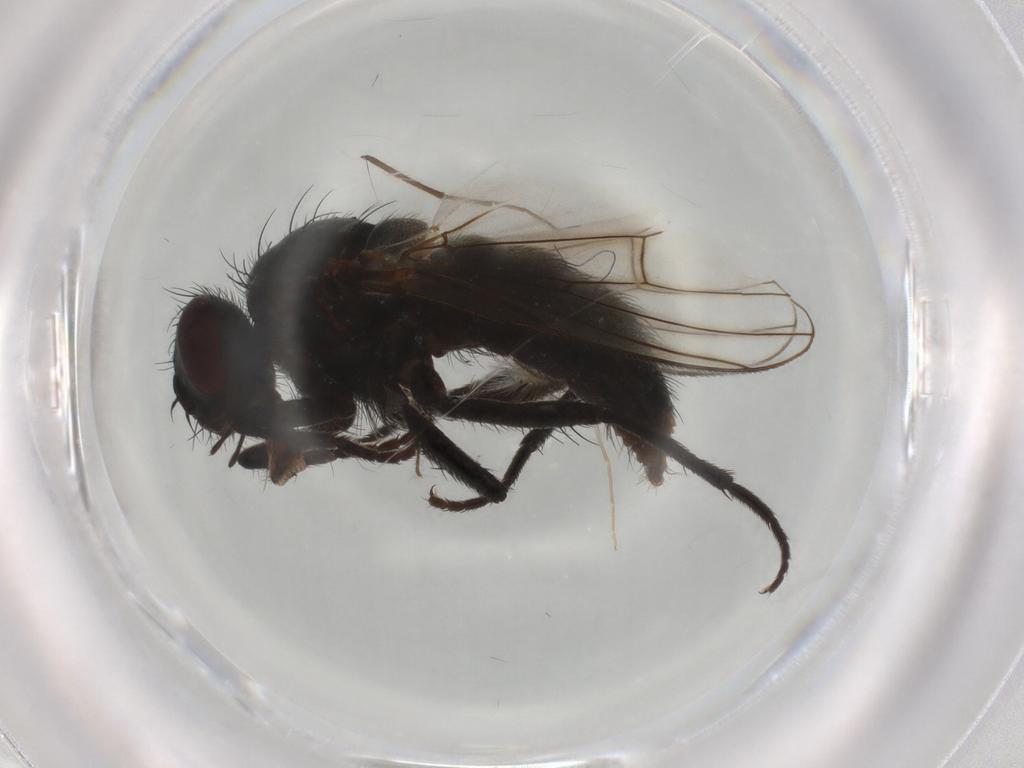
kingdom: Animalia
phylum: Arthropoda
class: Insecta
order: Diptera
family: Muscidae
